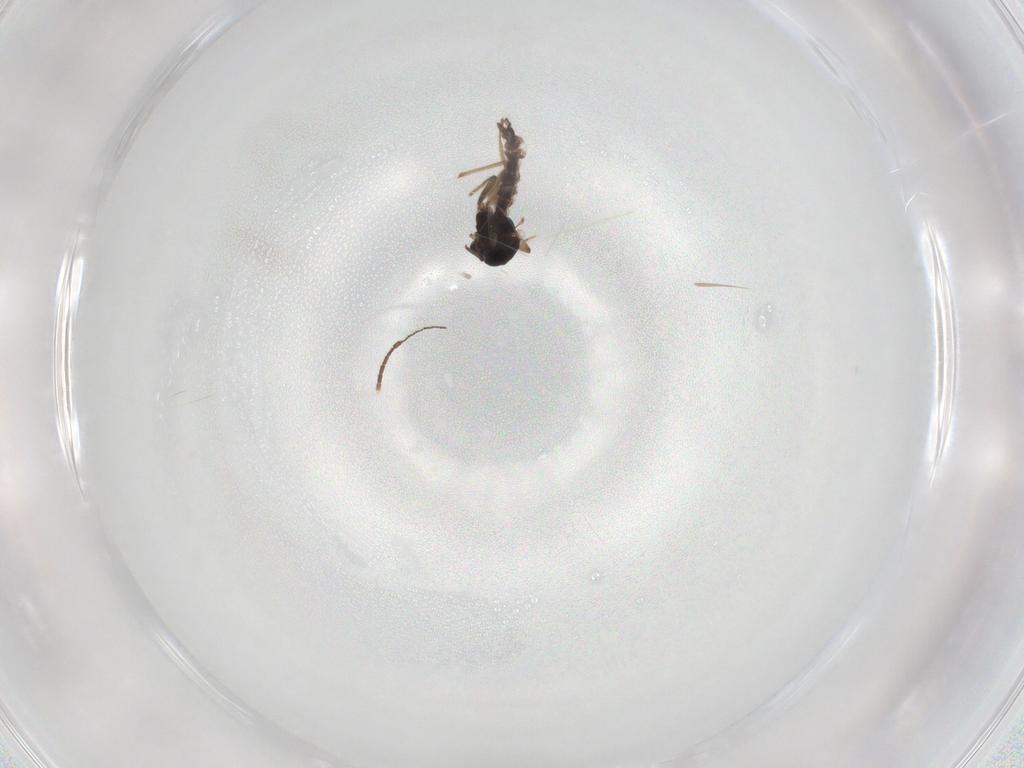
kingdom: Animalia
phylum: Arthropoda
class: Insecta
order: Diptera
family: Chironomidae
